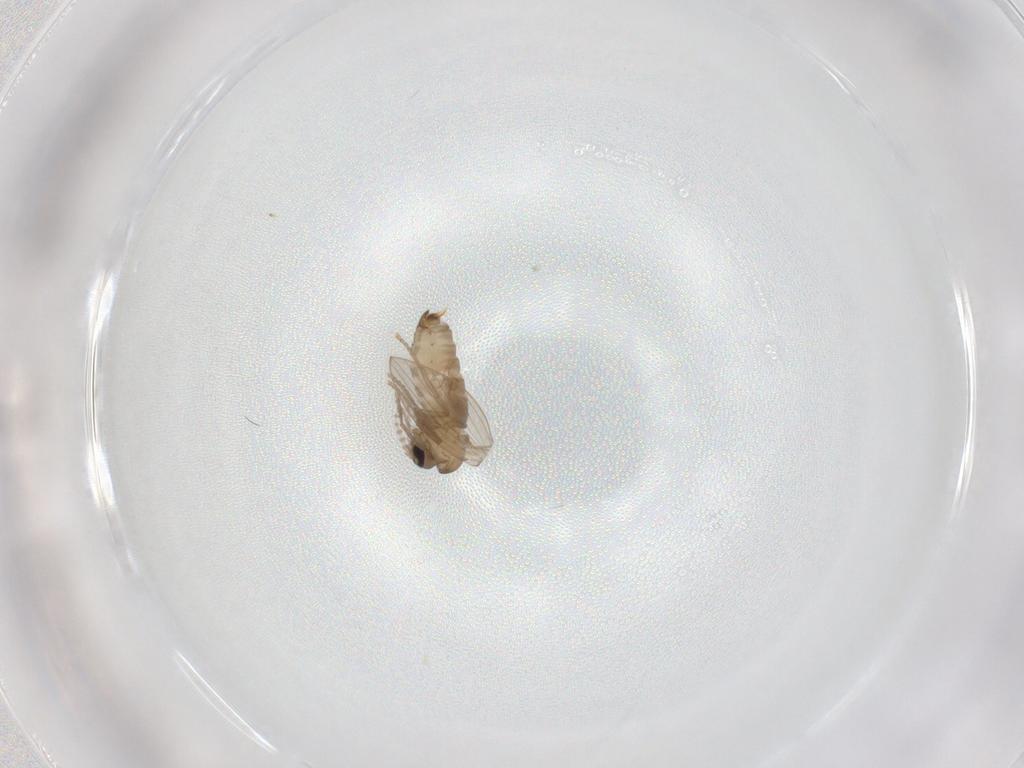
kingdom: Animalia
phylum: Arthropoda
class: Insecta
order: Diptera
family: Psychodidae
